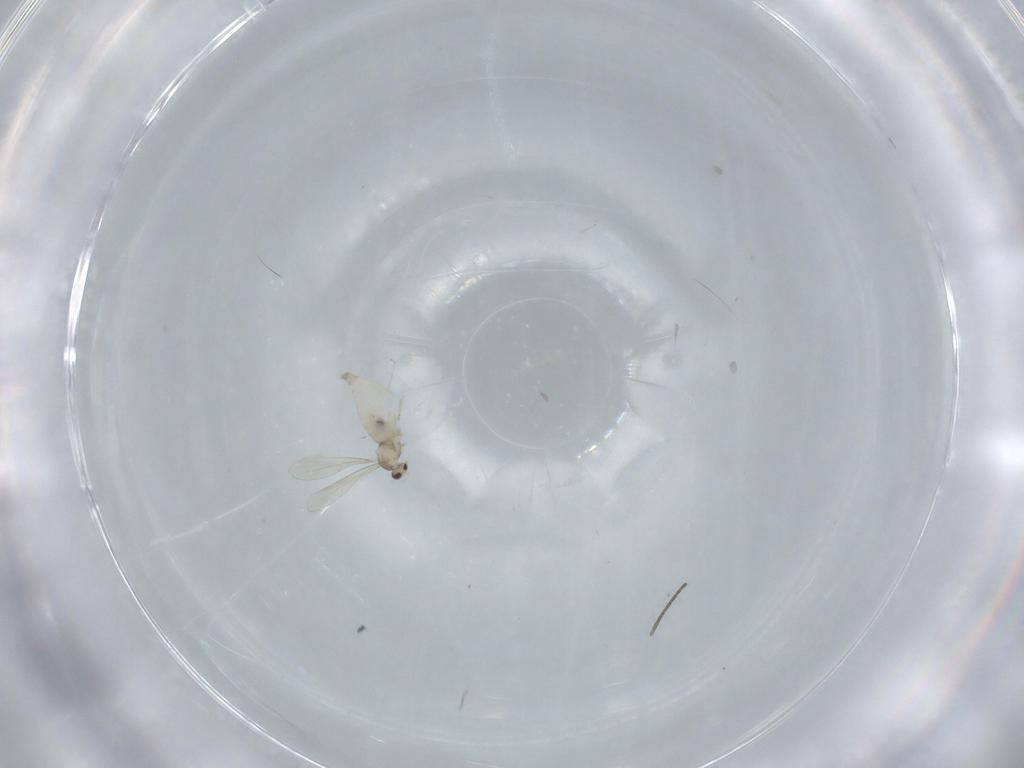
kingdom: Animalia
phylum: Arthropoda
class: Insecta
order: Diptera
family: Cecidomyiidae
